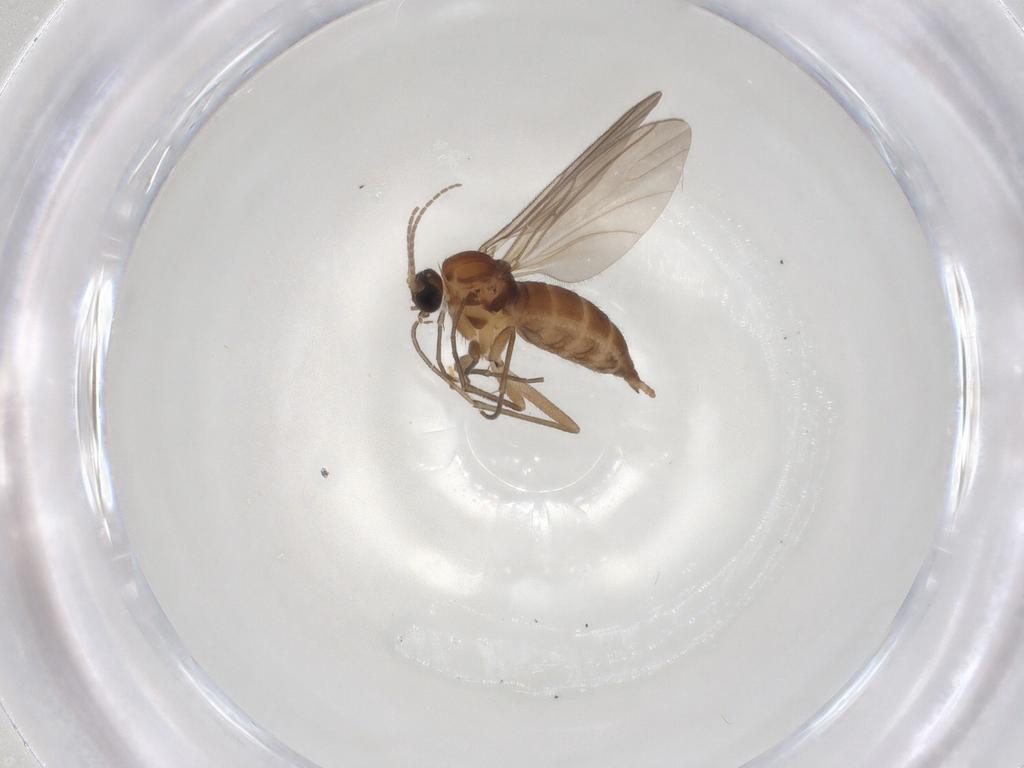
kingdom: Animalia
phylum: Arthropoda
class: Insecta
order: Diptera
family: Sciaridae
